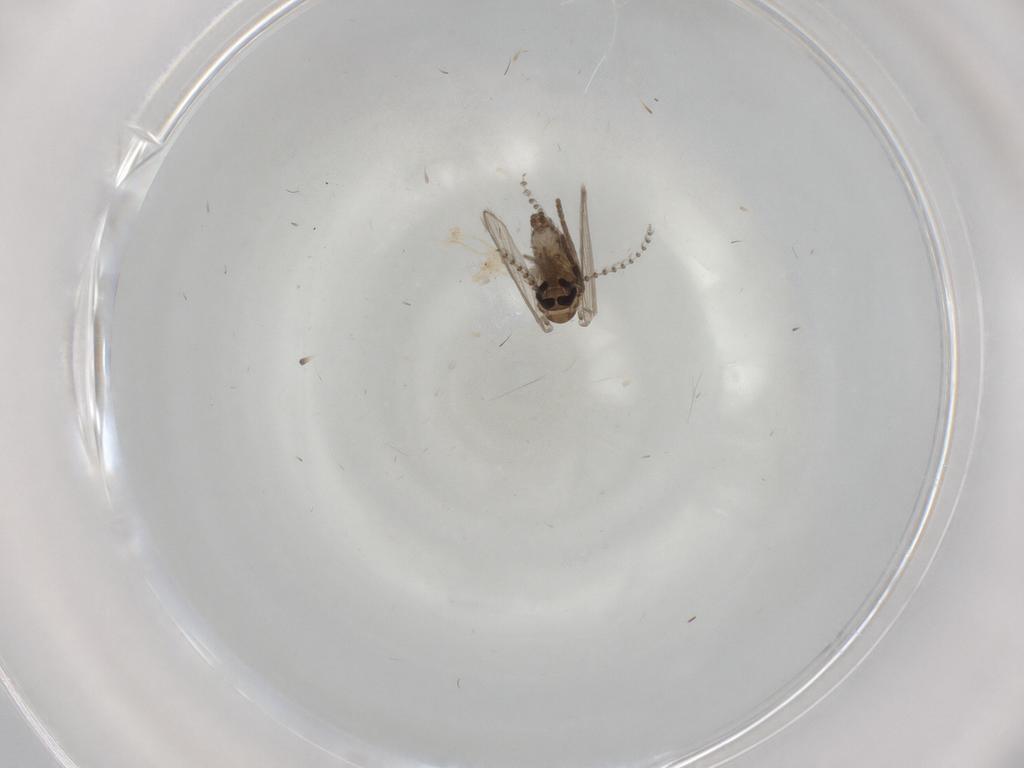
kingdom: Animalia
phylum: Arthropoda
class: Insecta
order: Diptera
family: Psychodidae
